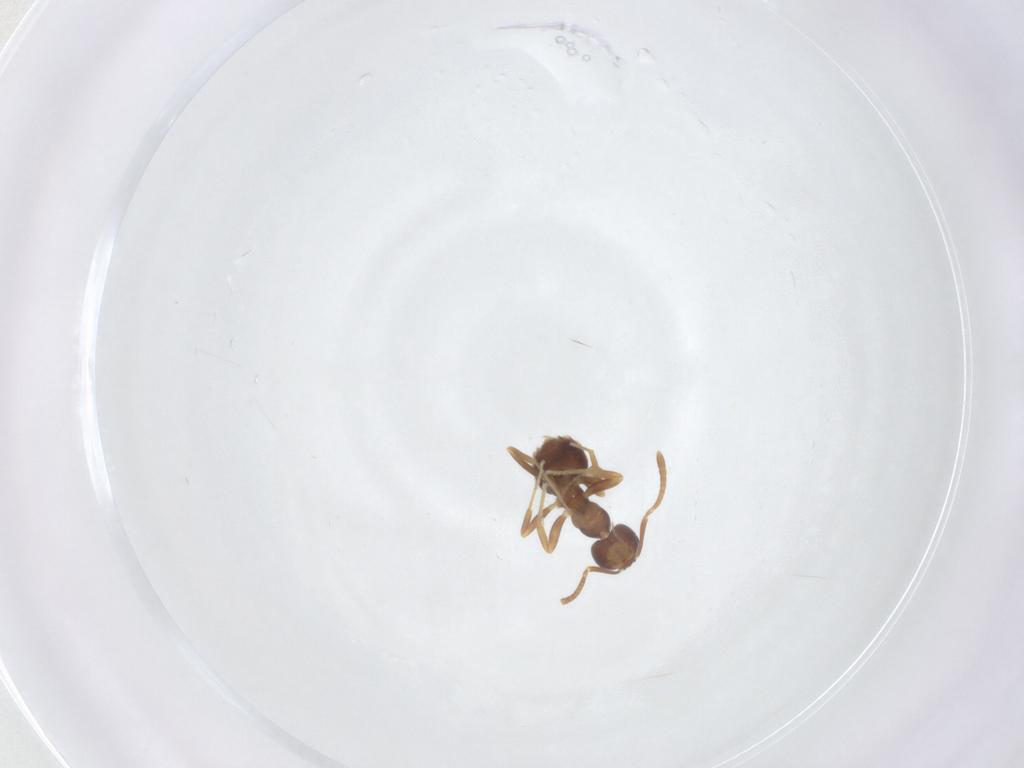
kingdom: Animalia
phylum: Arthropoda
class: Insecta
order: Hymenoptera
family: Formicidae
